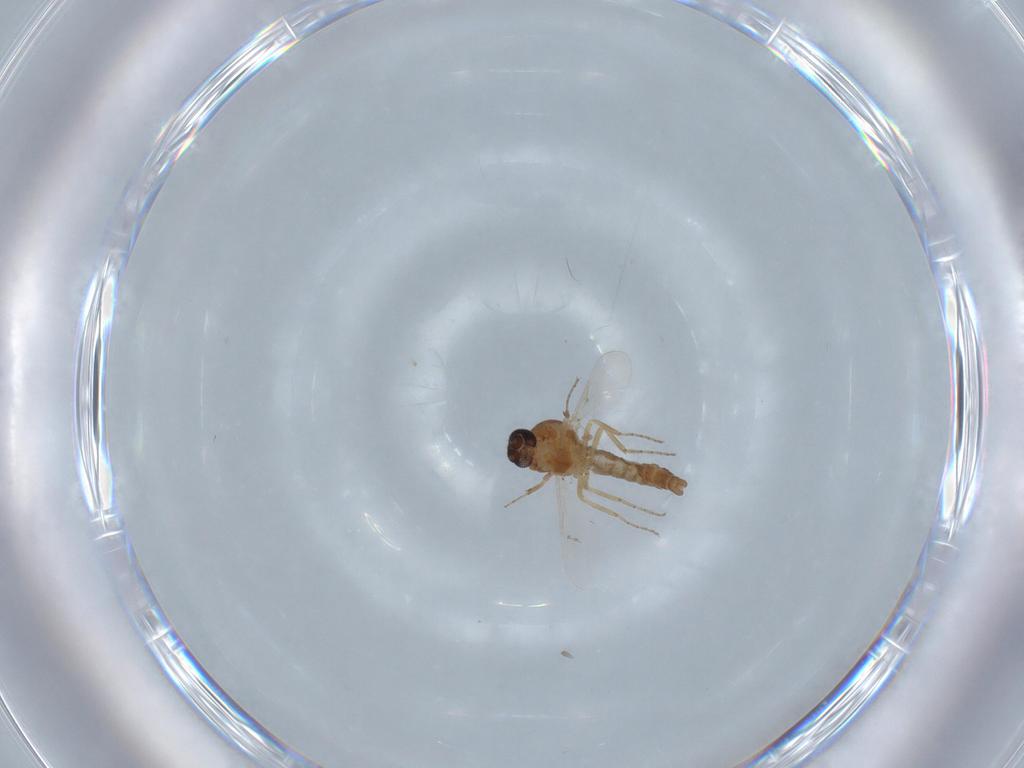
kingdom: Animalia
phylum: Arthropoda
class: Insecta
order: Diptera
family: Ceratopogonidae
